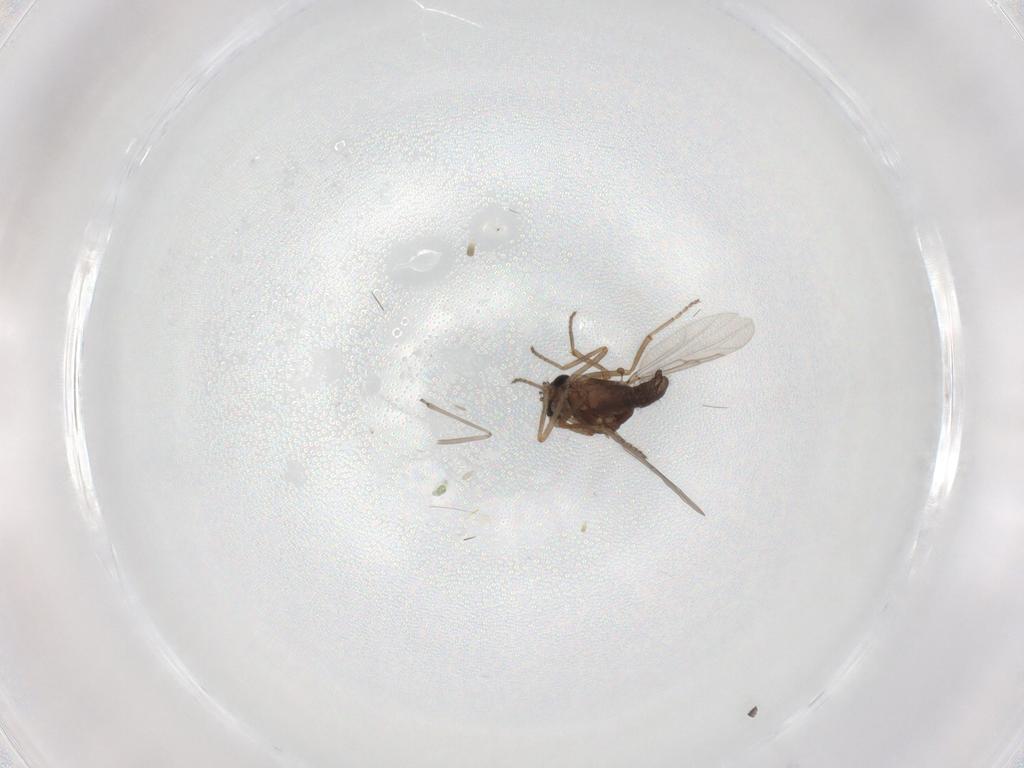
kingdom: Animalia
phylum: Arthropoda
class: Insecta
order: Diptera
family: Ceratopogonidae
